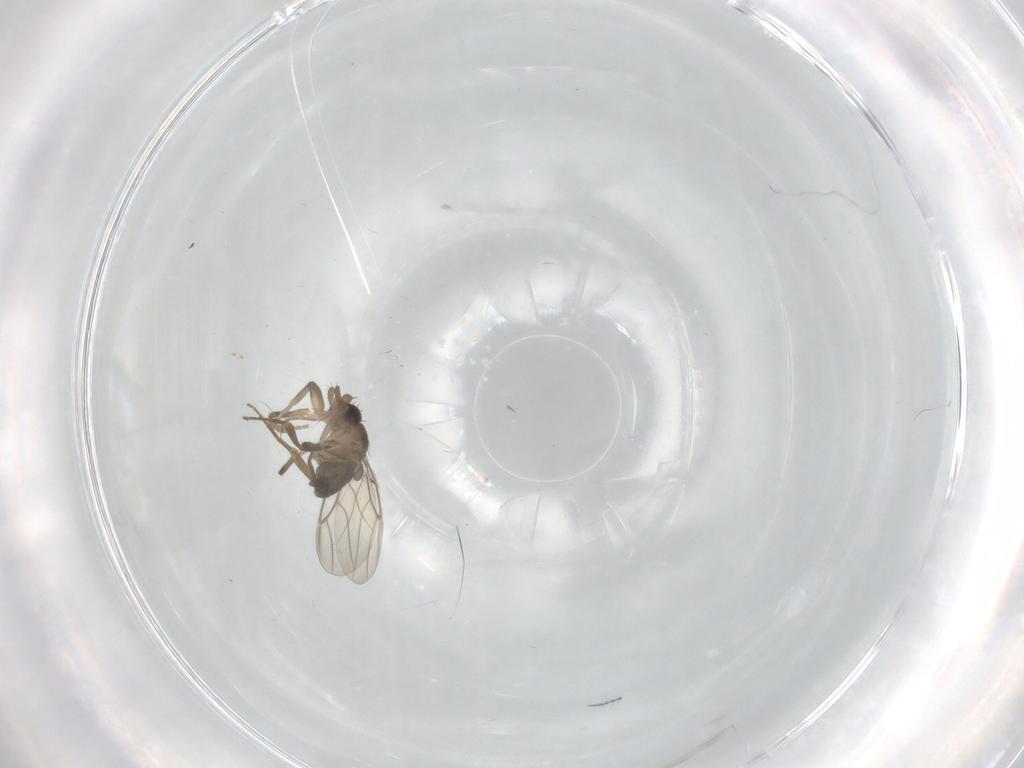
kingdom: Animalia
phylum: Arthropoda
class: Insecta
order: Diptera
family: Cecidomyiidae
